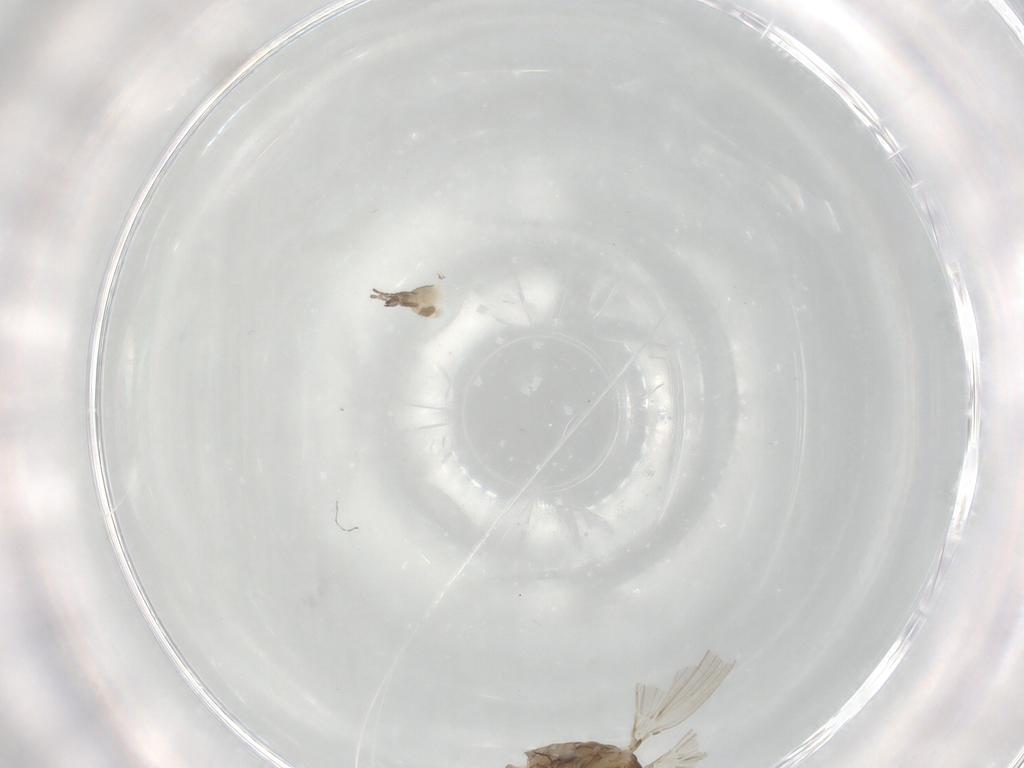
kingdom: Animalia
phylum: Arthropoda
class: Insecta
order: Diptera
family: Psychodidae
